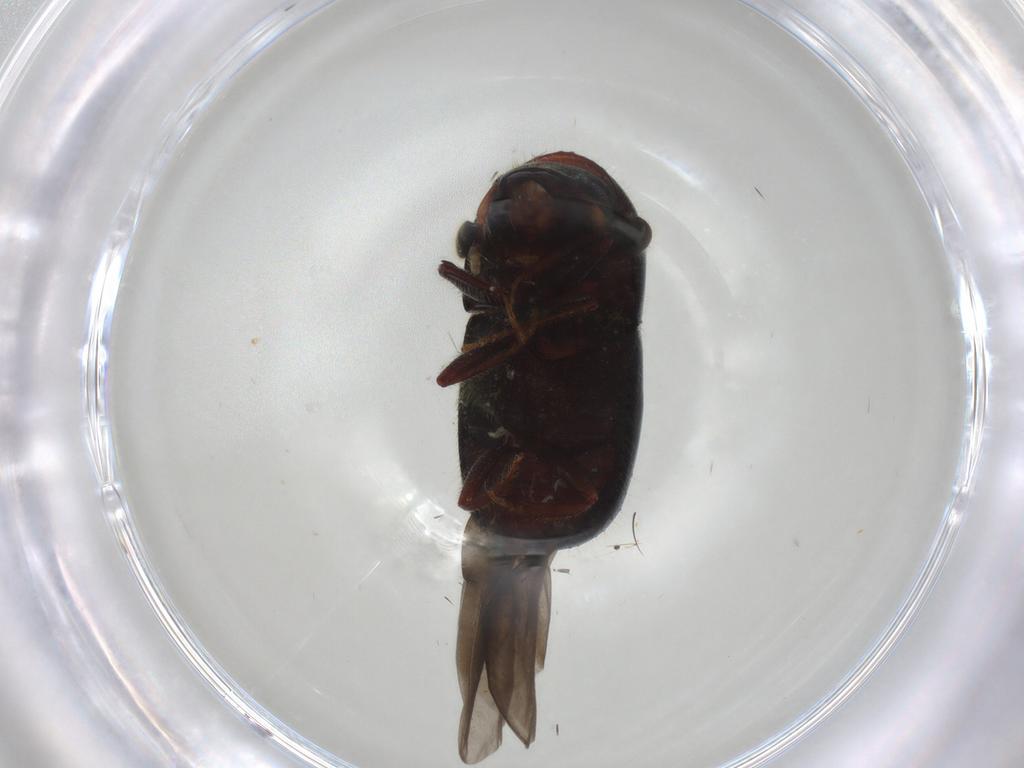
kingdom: Animalia
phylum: Arthropoda
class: Insecta
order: Coleoptera
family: Curculionidae
